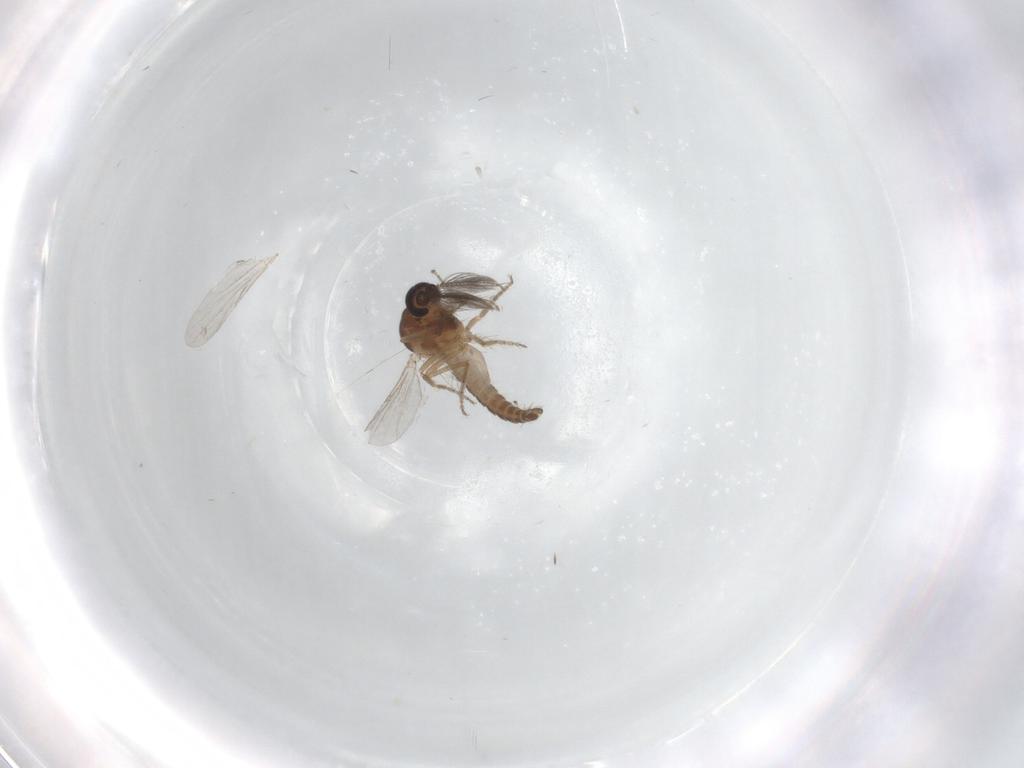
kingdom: Animalia
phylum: Arthropoda
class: Insecta
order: Diptera
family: Ceratopogonidae
